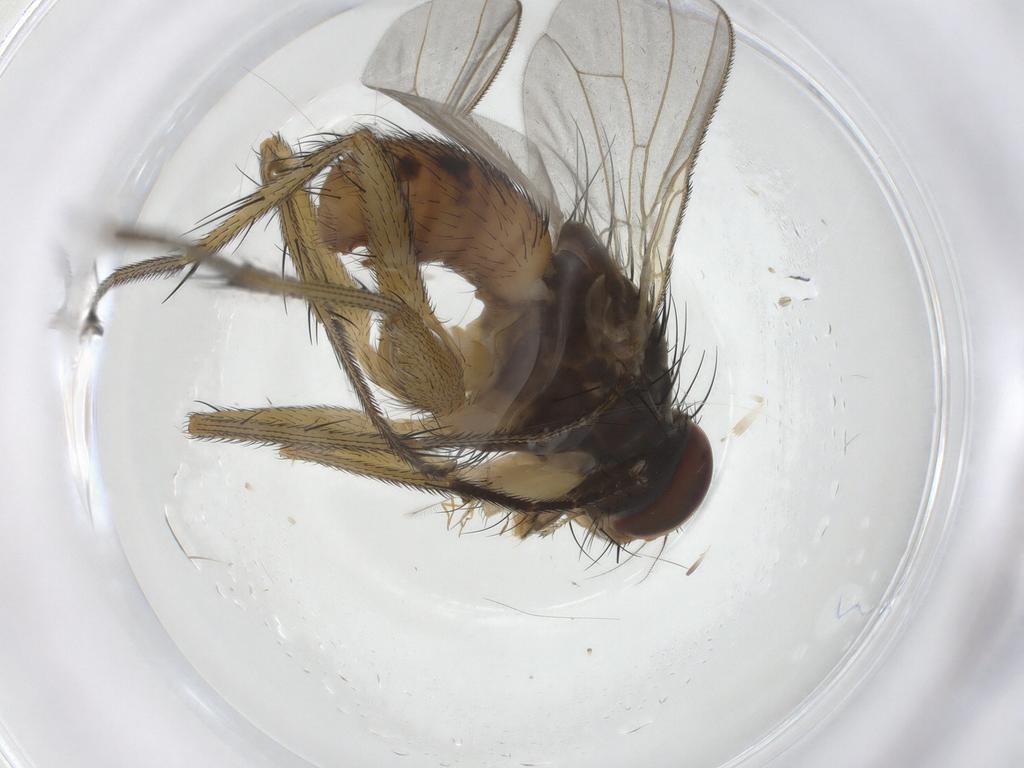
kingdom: Animalia
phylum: Arthropoda
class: Insecta
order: Diptera
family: Muscidae
